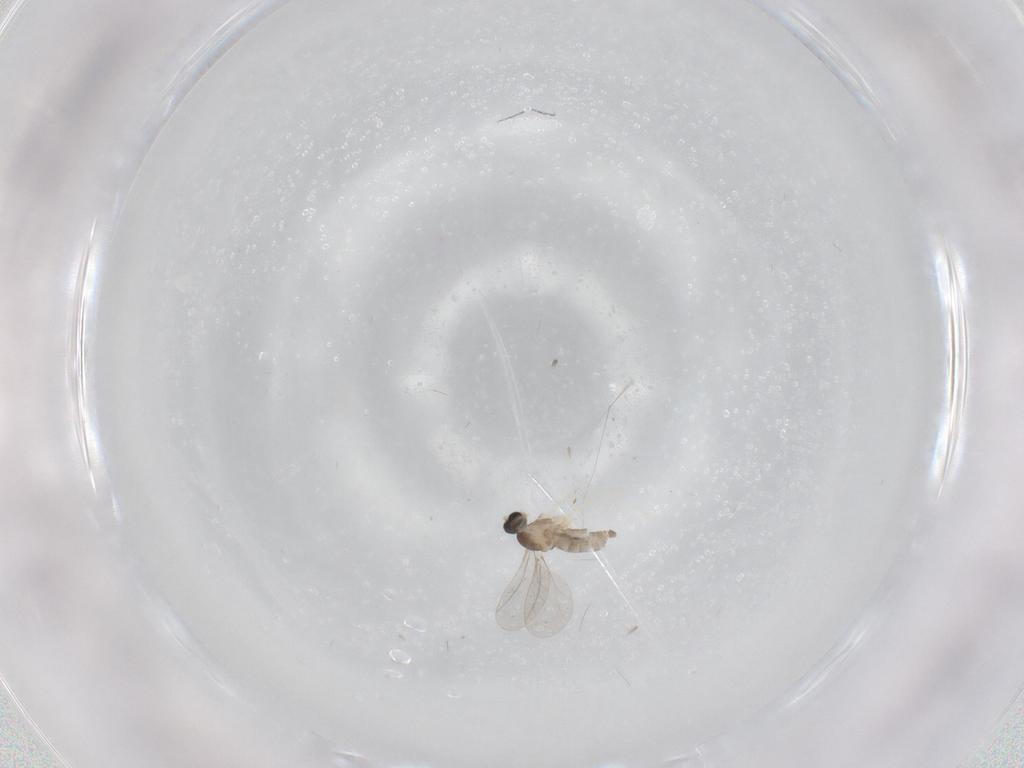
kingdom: Animalia
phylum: Arthropoda
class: Insecta
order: Diptera
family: Cecidomyiidae
